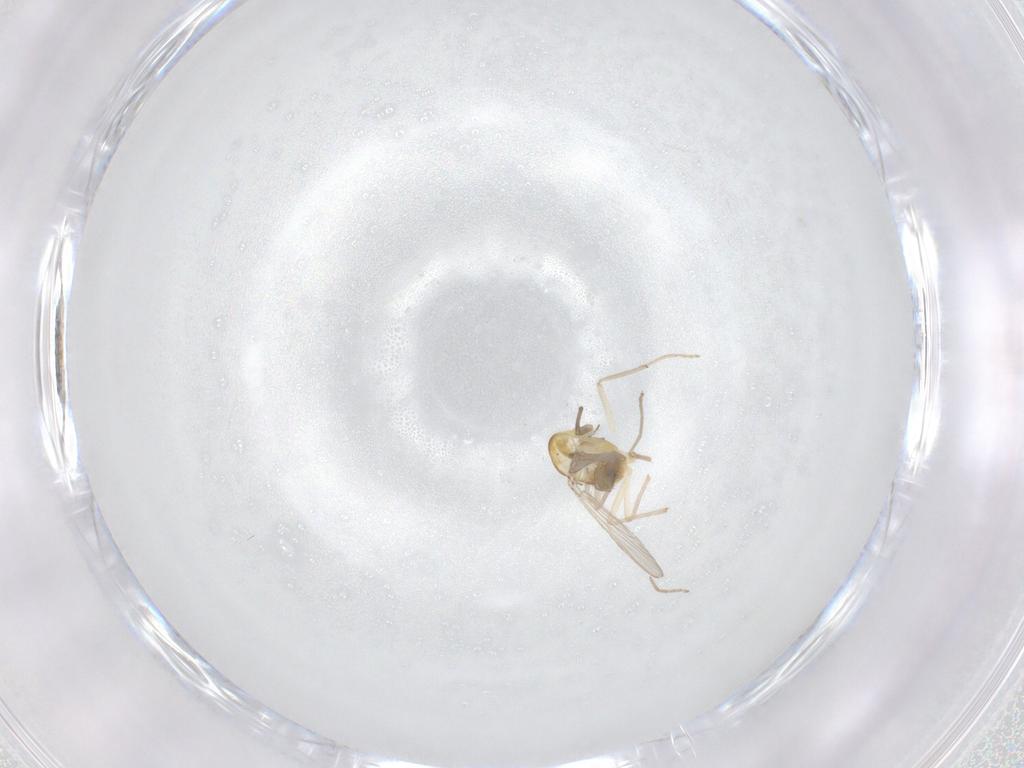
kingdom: Animalia
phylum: Arthropoda
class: Insecta
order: Diptera
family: Chironomidae
